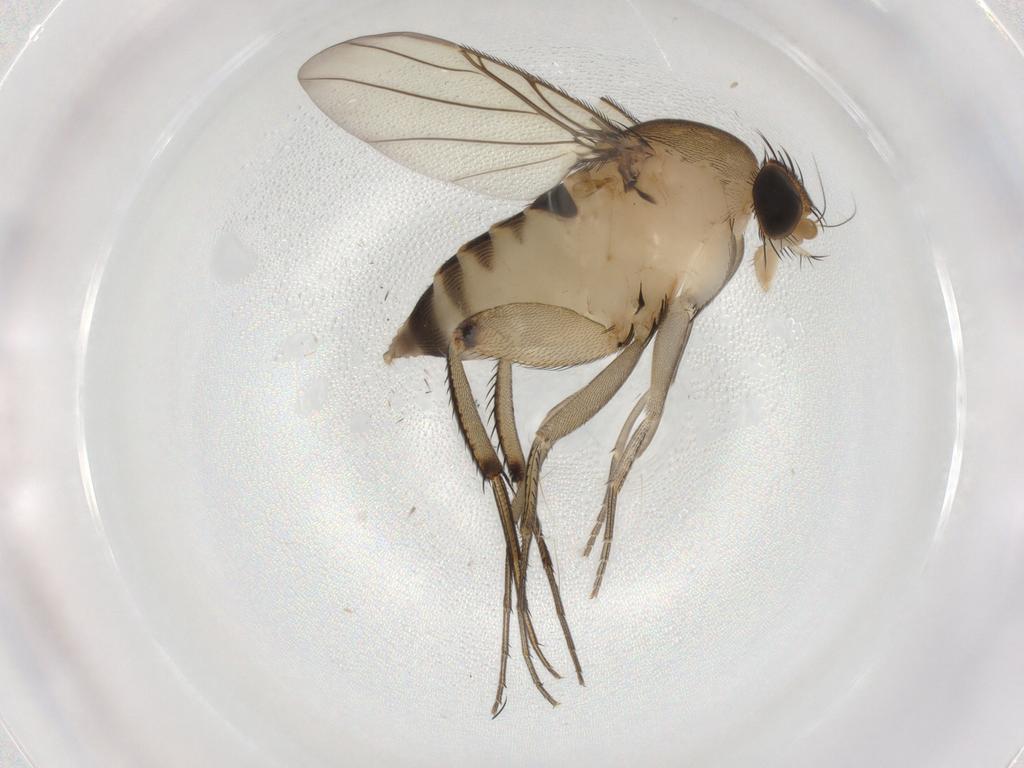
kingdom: Animalia
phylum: Arthropoda
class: Insecta
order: Diptera
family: Phoridae
